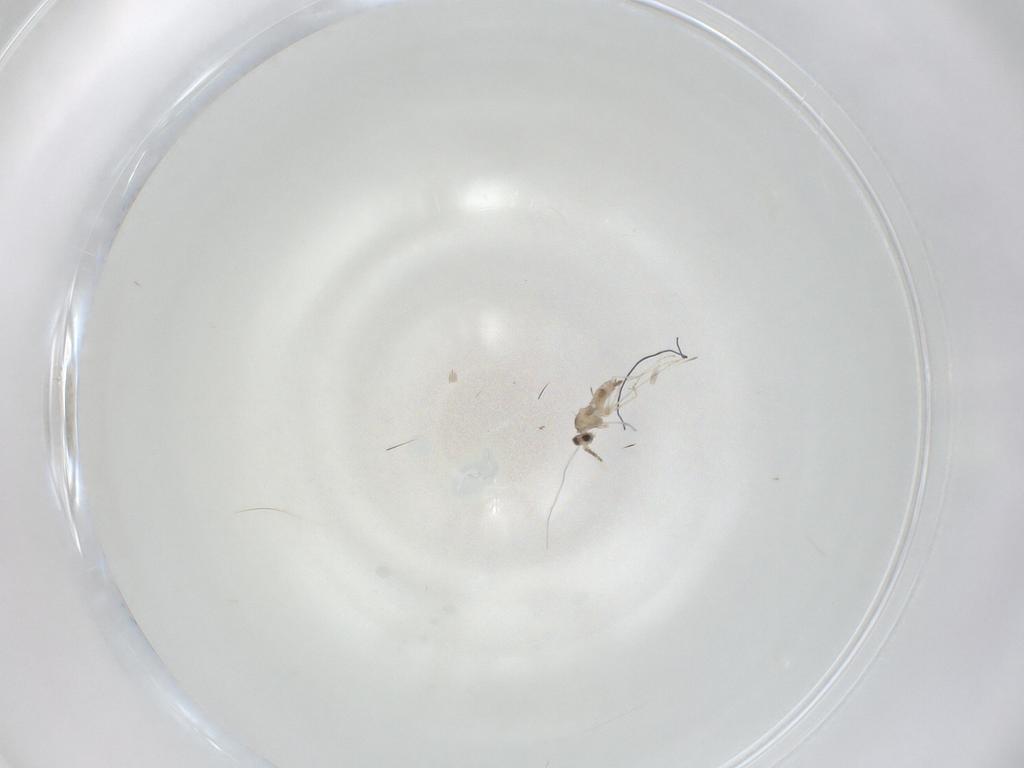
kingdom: Animalia
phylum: Arthropoda
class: Insecta
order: Diptera
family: Cecidomyiidae
